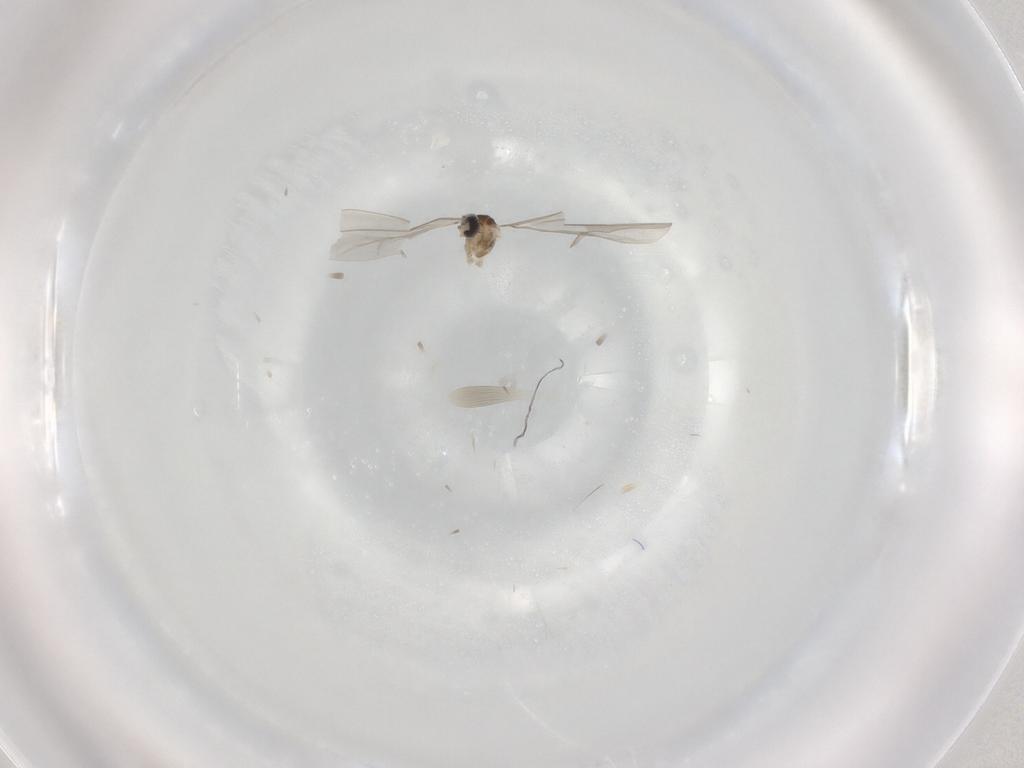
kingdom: Animalia
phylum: Arthropoda
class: Insecta
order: Diptera
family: Cecidomyiidae
